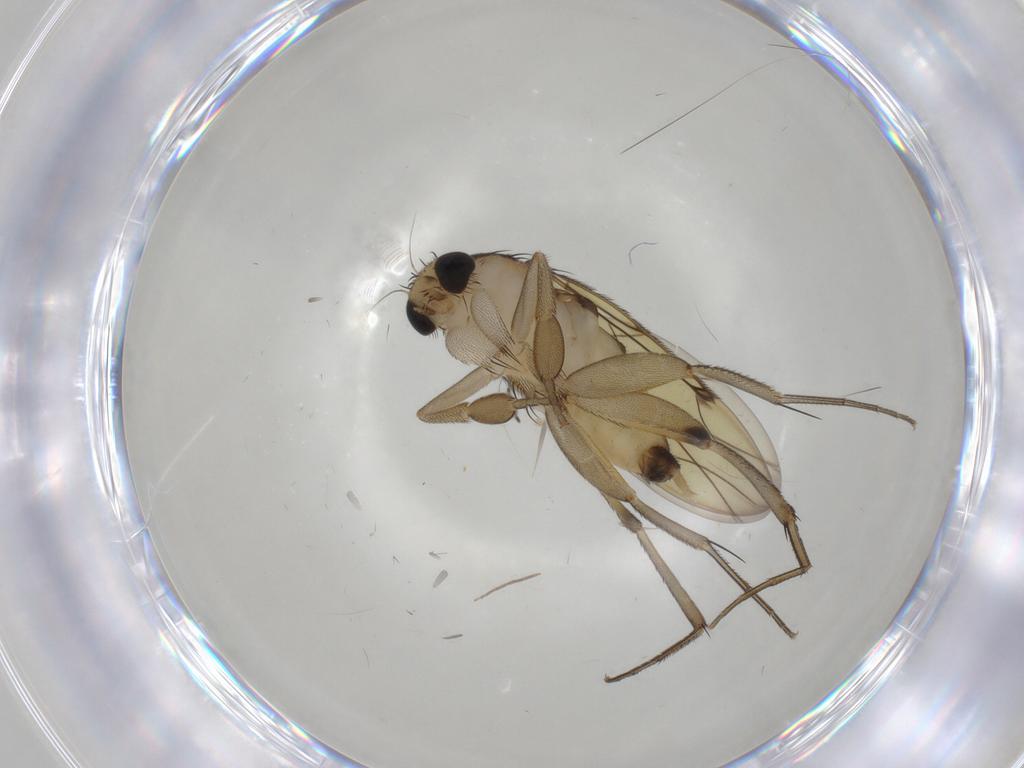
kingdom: Animalia
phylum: Arthropoda
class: Insecta
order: Diptera
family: Phoridae
